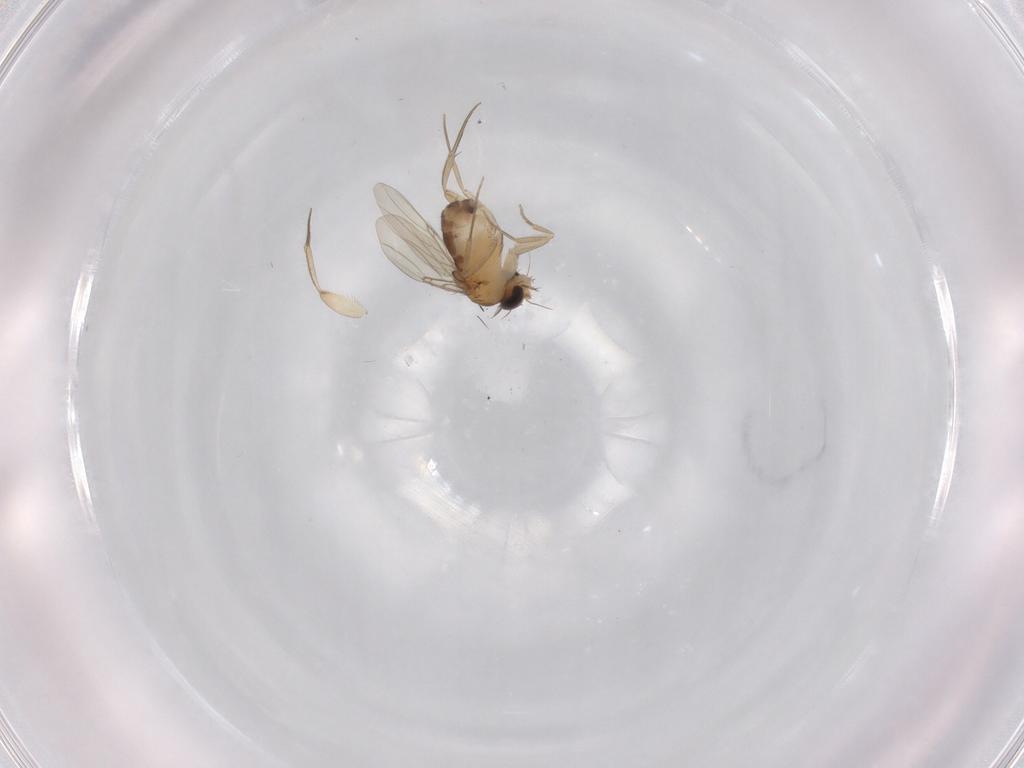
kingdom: Animalia
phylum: Arthropoda
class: Insecta
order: Diptera
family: Phoridae
